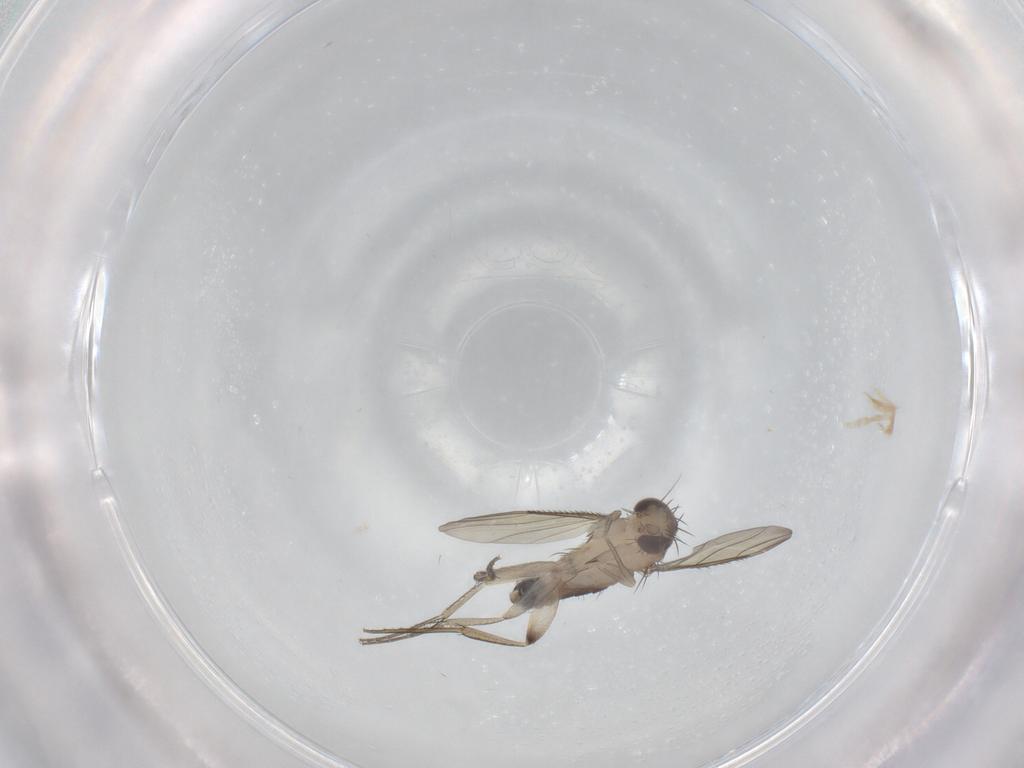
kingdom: Animalia
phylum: Arthropoda
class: Insecta
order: Diptera
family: Phoridae
